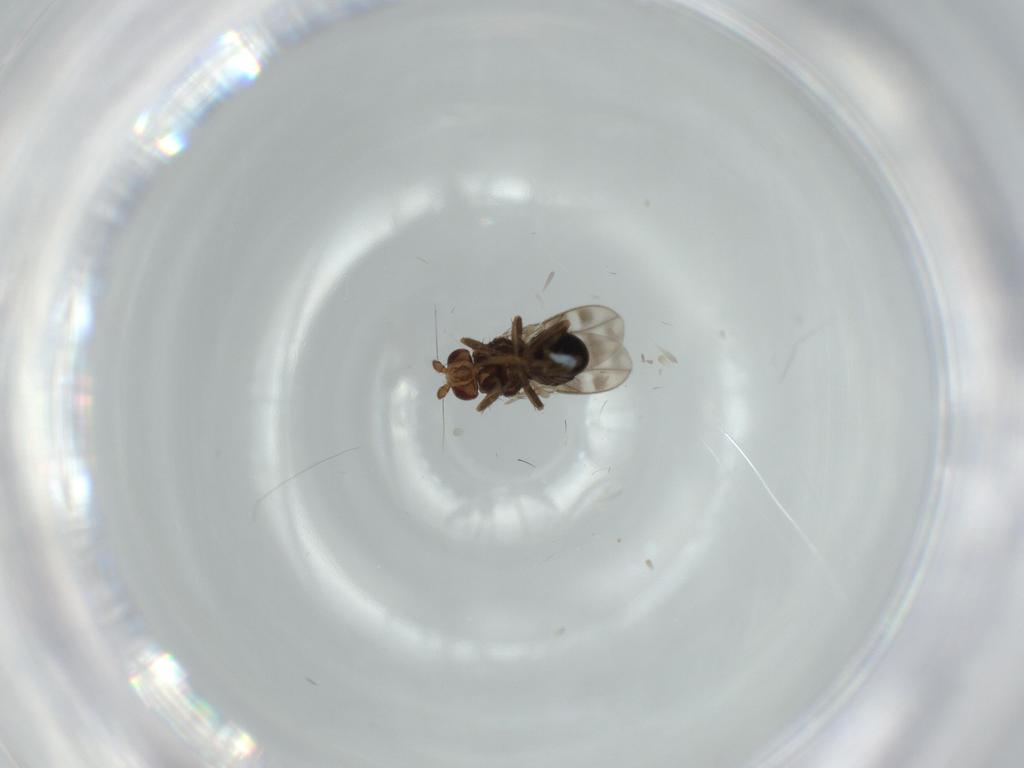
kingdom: Animalia
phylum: Arthropoda
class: Insecta
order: Diptera
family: Sphaeroceridae
